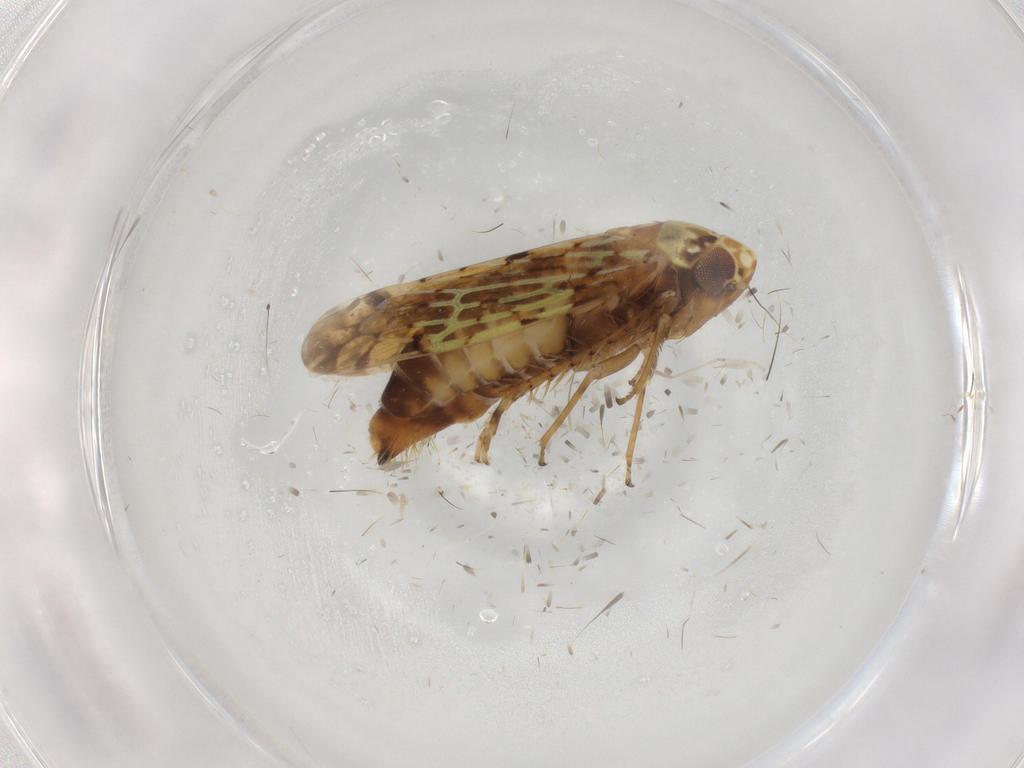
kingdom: Animalia
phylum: Arthropoda
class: Insecta
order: Hemiptera
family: Cicadellidae
